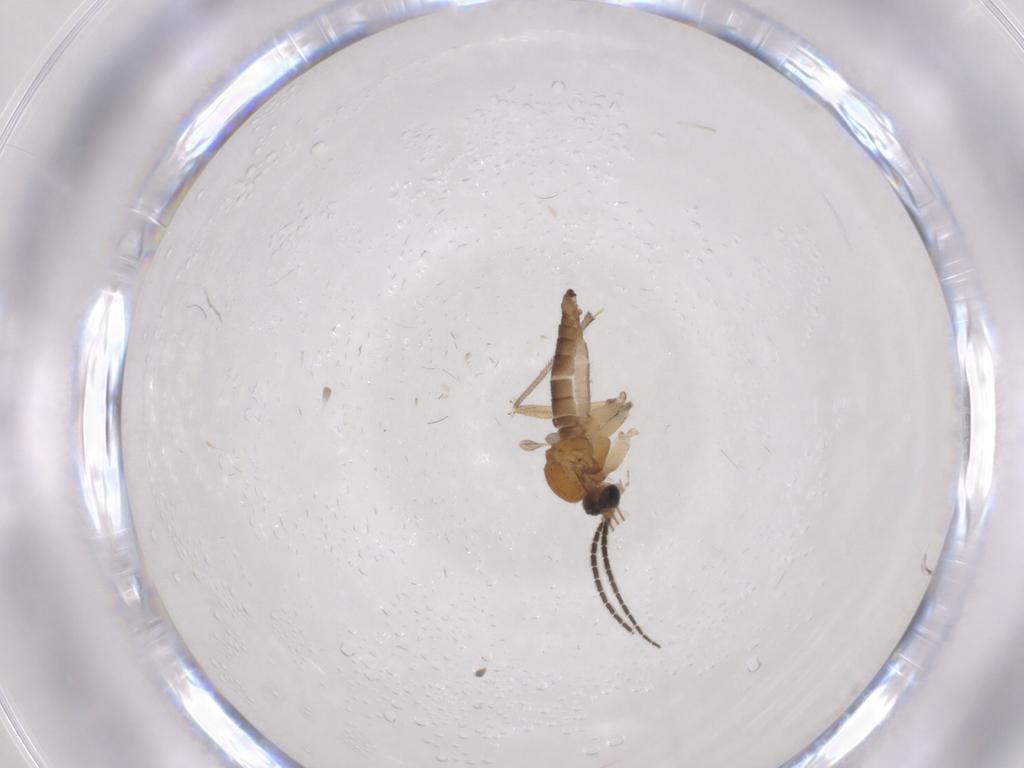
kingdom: Animalia
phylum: Arthropoda
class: Insecta
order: Diptera
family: Sciaridae
